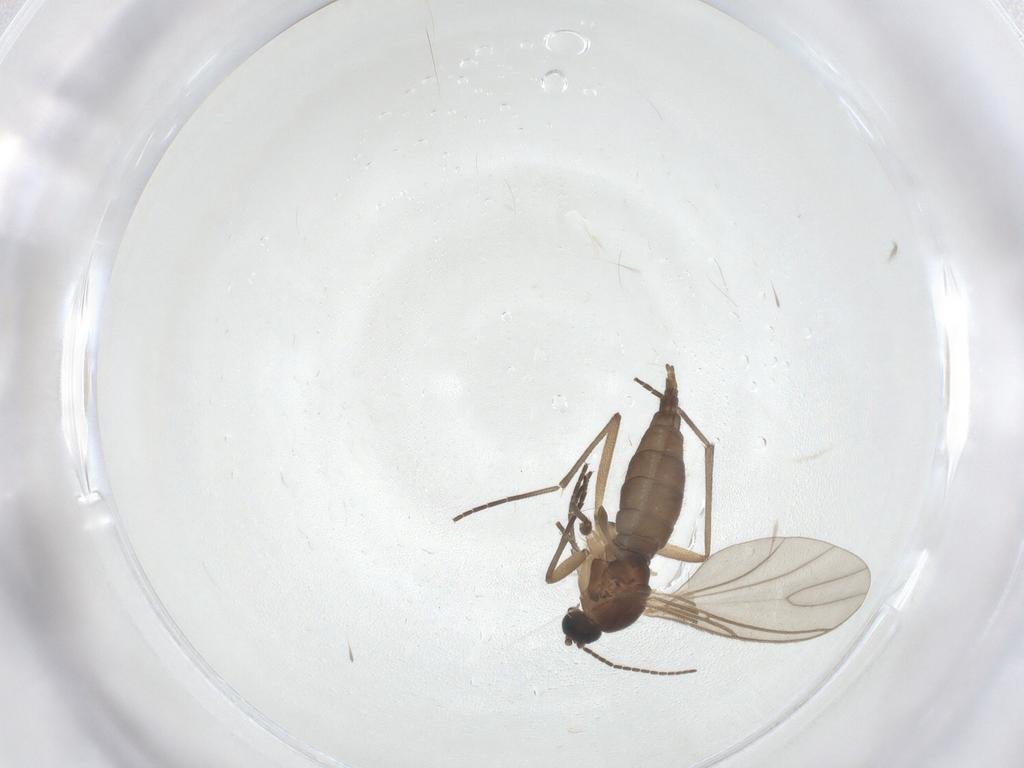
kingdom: Animalia
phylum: Arthropoda
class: Insecta
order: Diptera
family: Sciaridae
